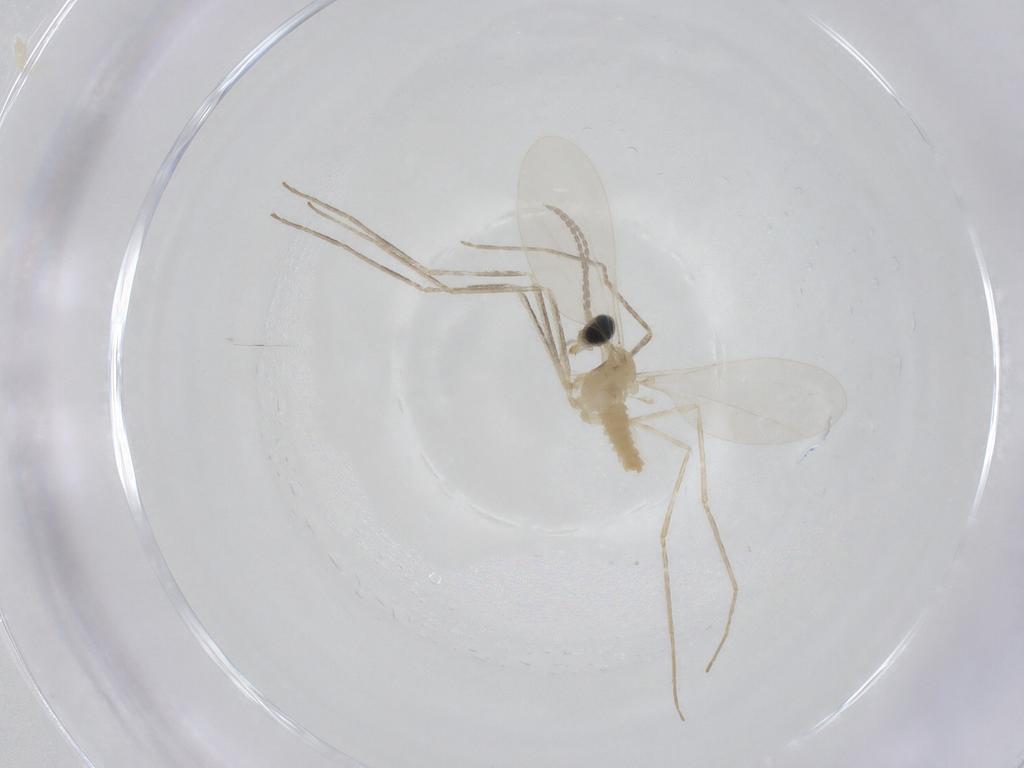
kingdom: Animalia
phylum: Arthropoda
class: Insecta
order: Diptera
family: Cecidomyiidae
